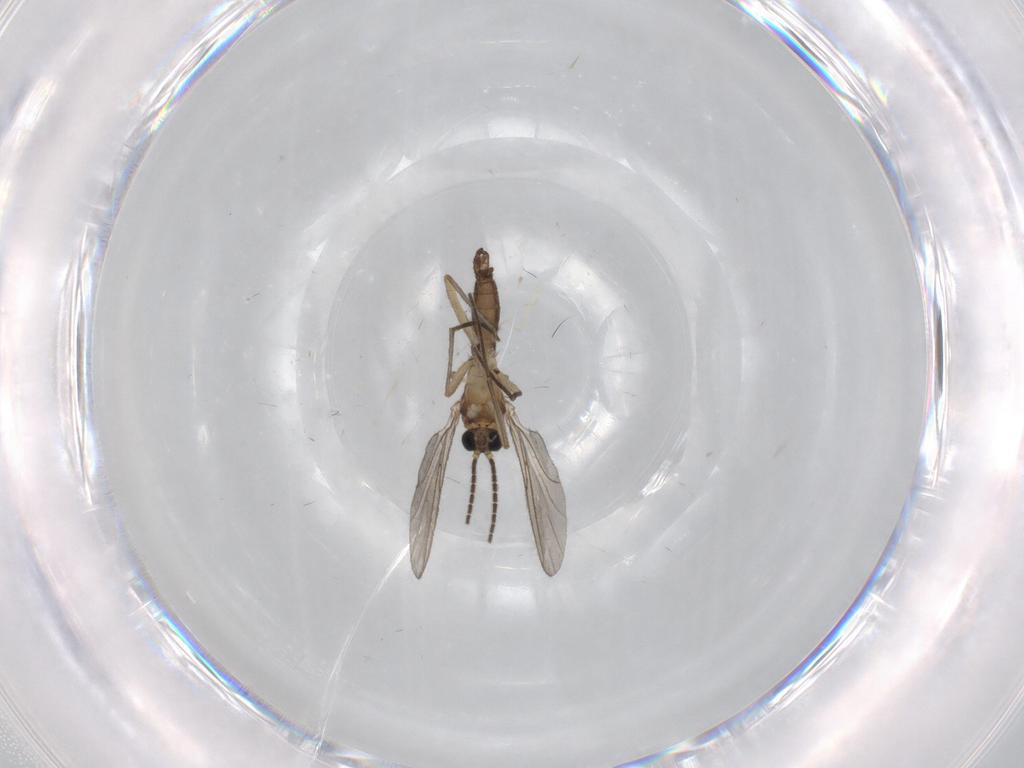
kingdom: Animalia
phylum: Arthropoda
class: Insecta
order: Diptera
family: Sciaridae
